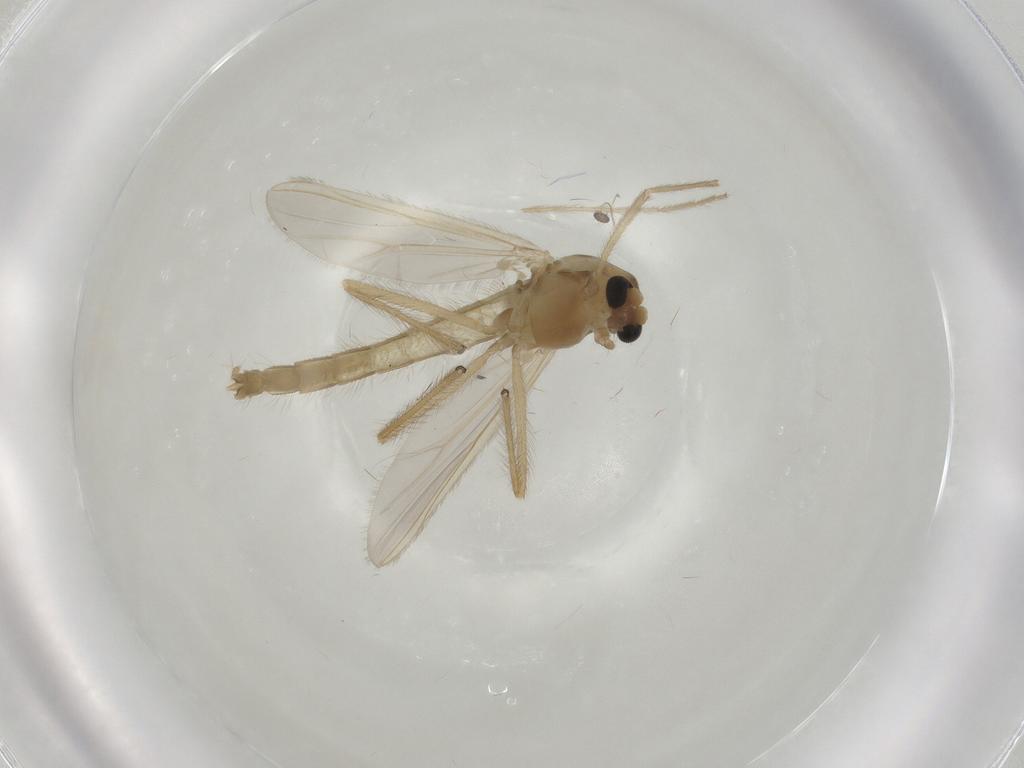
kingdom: Animalia
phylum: Arthropoda
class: Insecta
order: Diptera
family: Chironomidae
